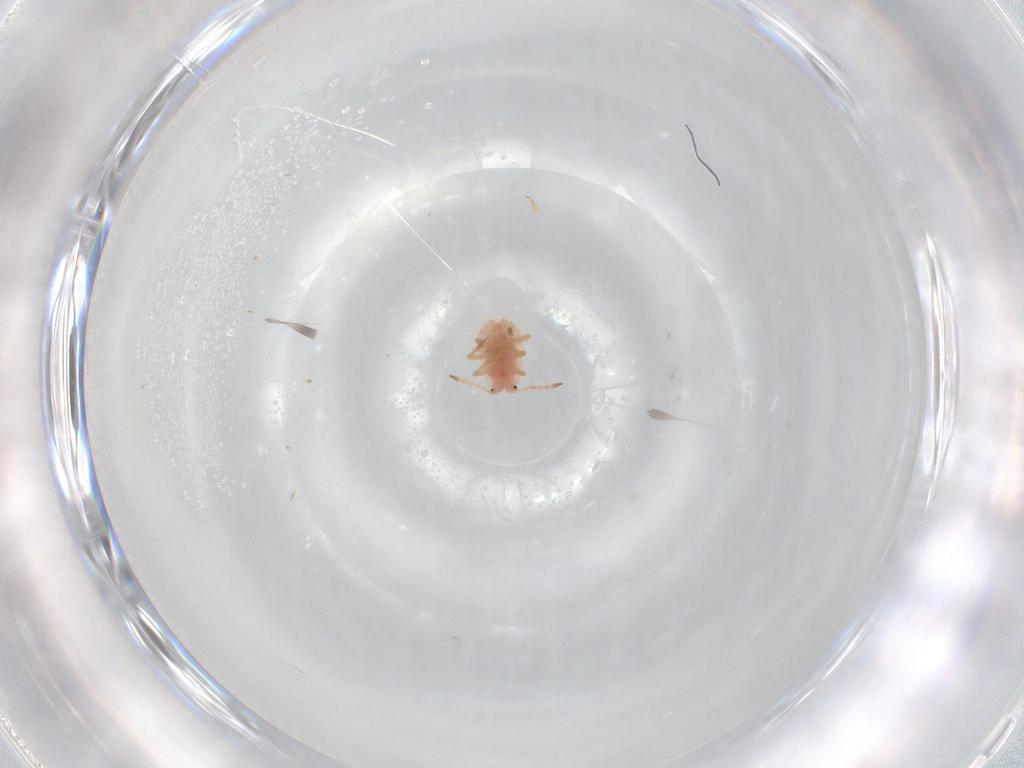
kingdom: Animalia
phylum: Arthropoda
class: Insecta
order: Hemiptera
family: Coccoidea_incertae_sedis
